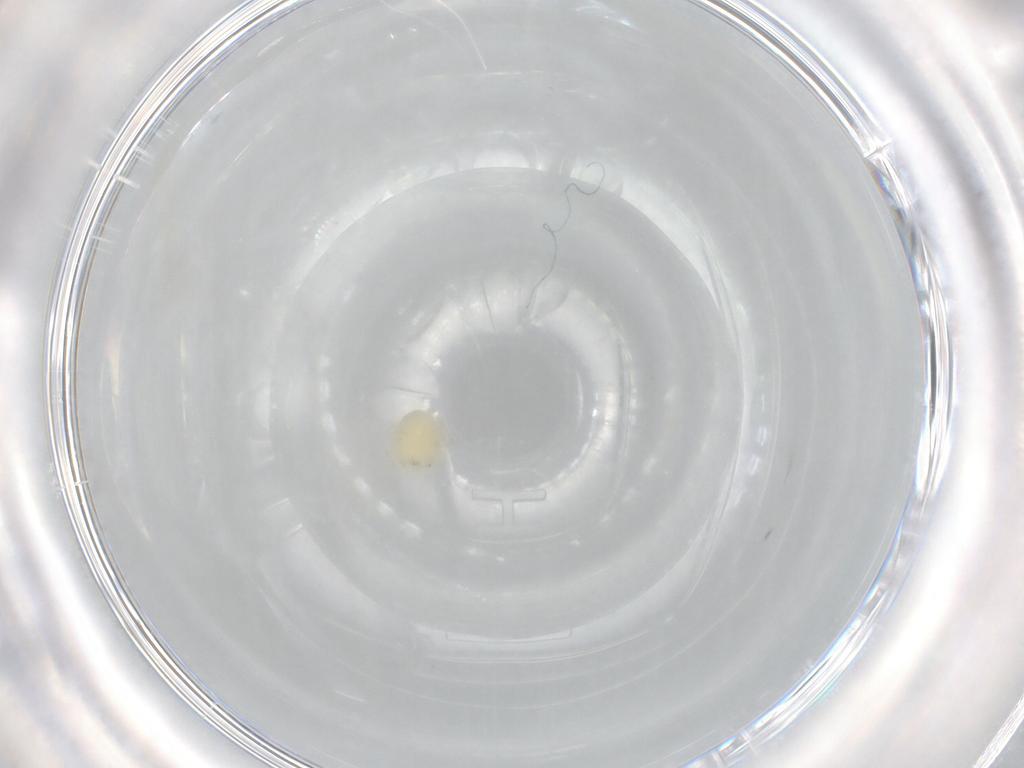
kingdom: Animalia
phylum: Arthropoda
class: Arachnida
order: Trombidiformes
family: Hydryphantidae
